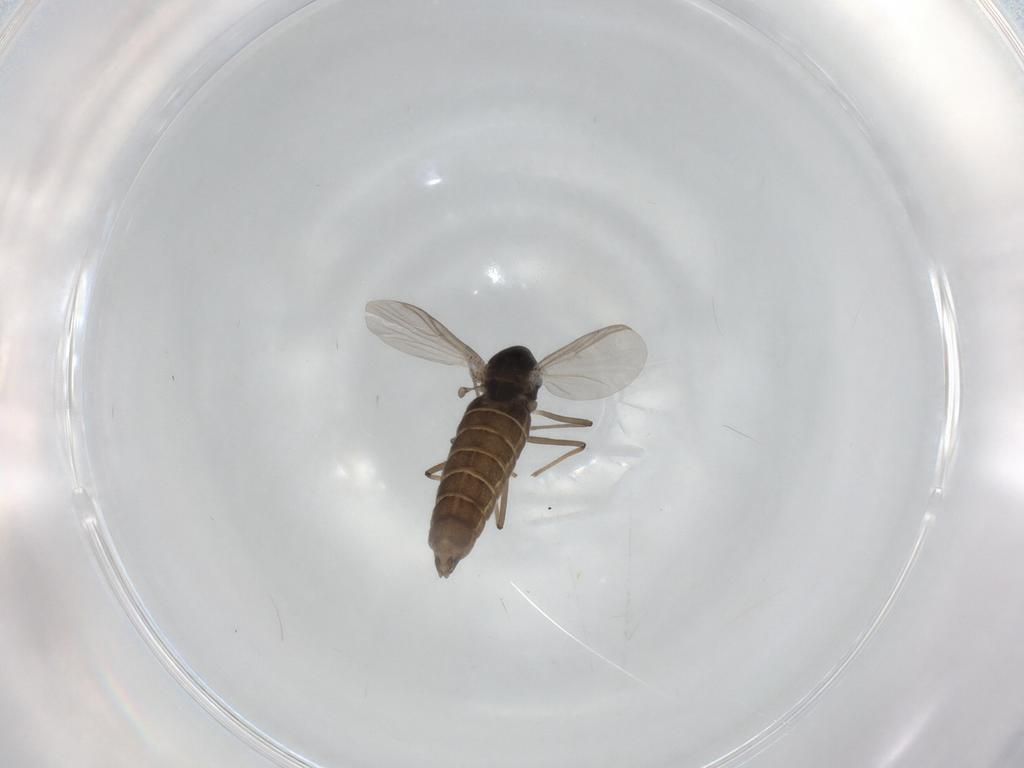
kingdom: Animalia
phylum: Arthropoda
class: Insecta
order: Diptera
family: Chironomidae
